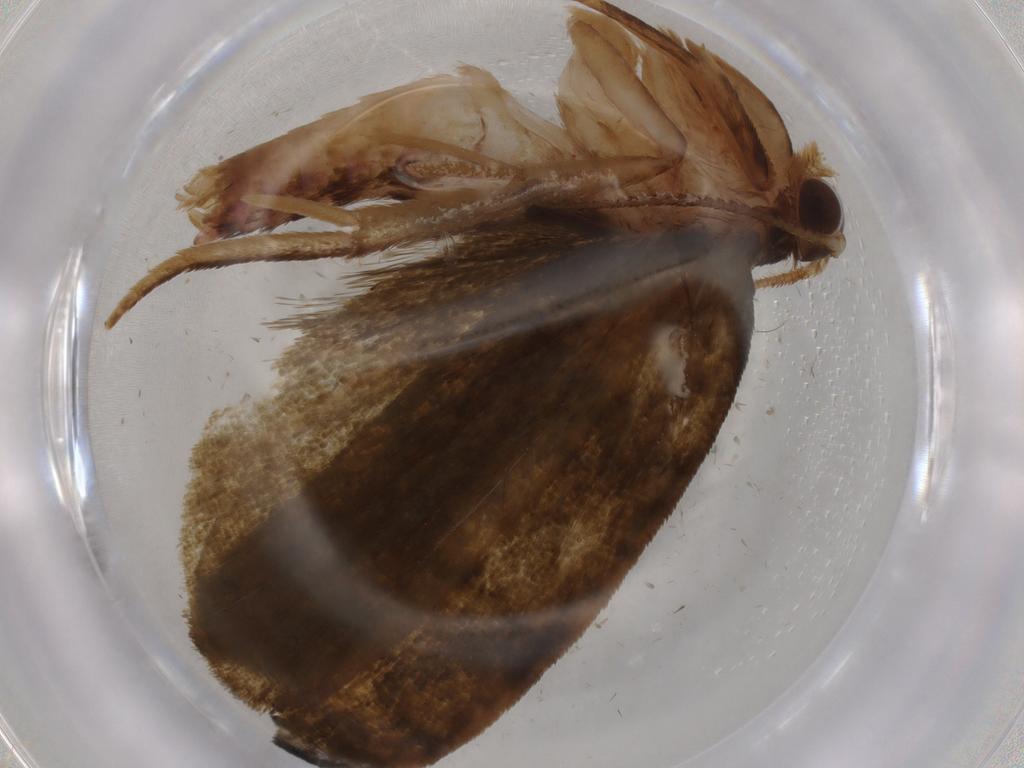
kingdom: Animalia
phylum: Arthropoda
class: Insecta
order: Lepidoptera
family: Geometridae
